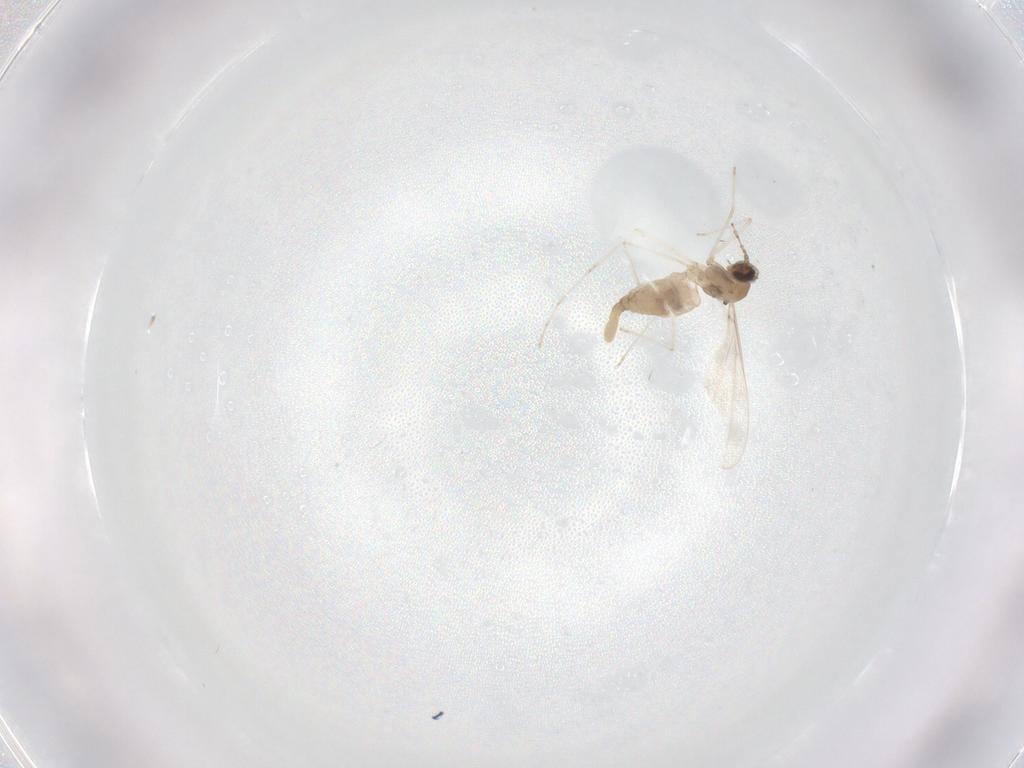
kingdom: Animalia
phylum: Arthropoda
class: Insecta
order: Diptera
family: Cecidomyiidae
